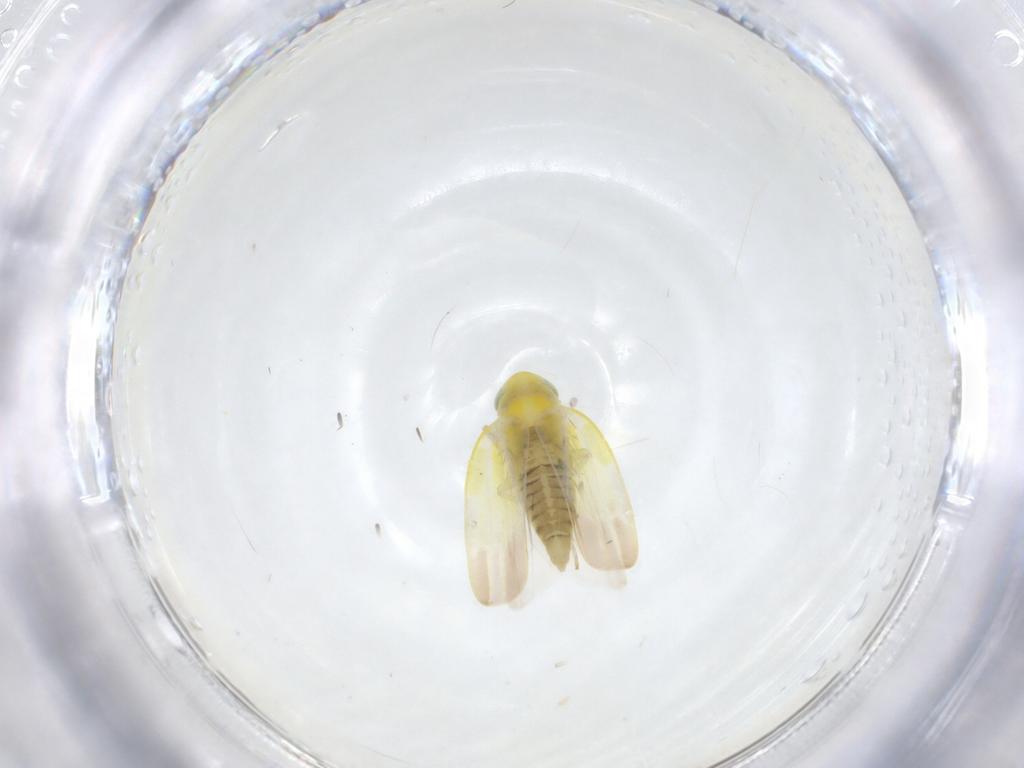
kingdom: Animalia
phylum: Arthropoda
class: Insecta
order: Hemiptera
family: Cicadellidae
